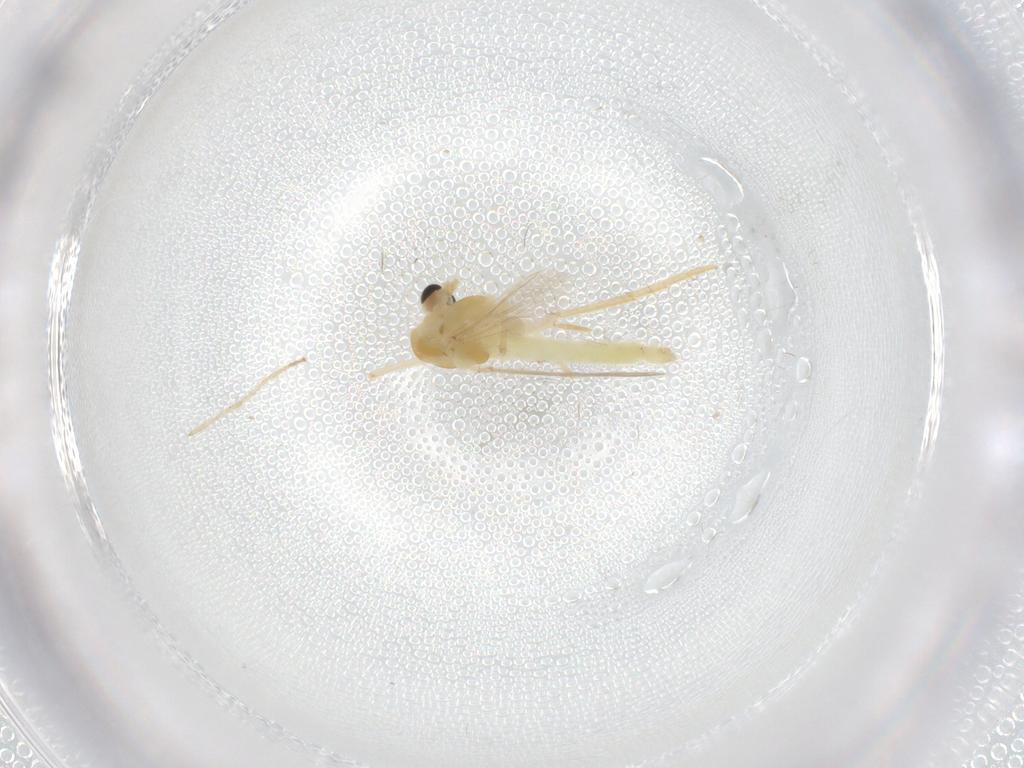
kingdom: Animalia
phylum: Arthropoda
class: Insecta
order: Diptera
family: Chironomidae
